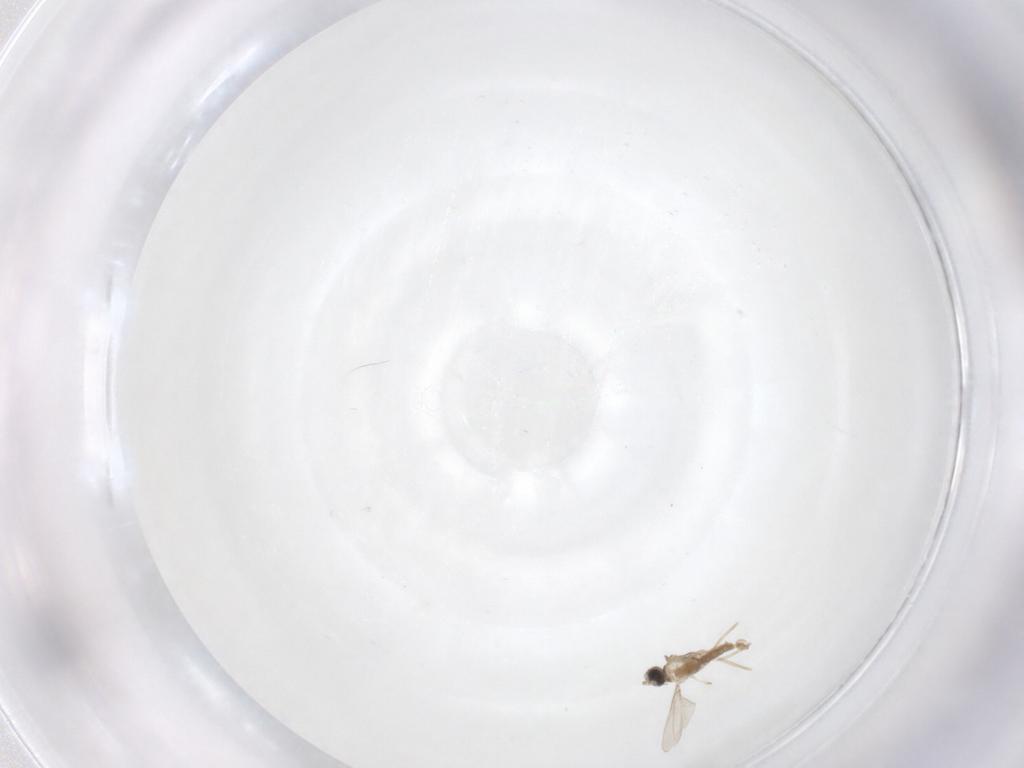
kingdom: Animalia
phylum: Arthropoda
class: Insecta
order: Diptera
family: Cecidomyiidae
